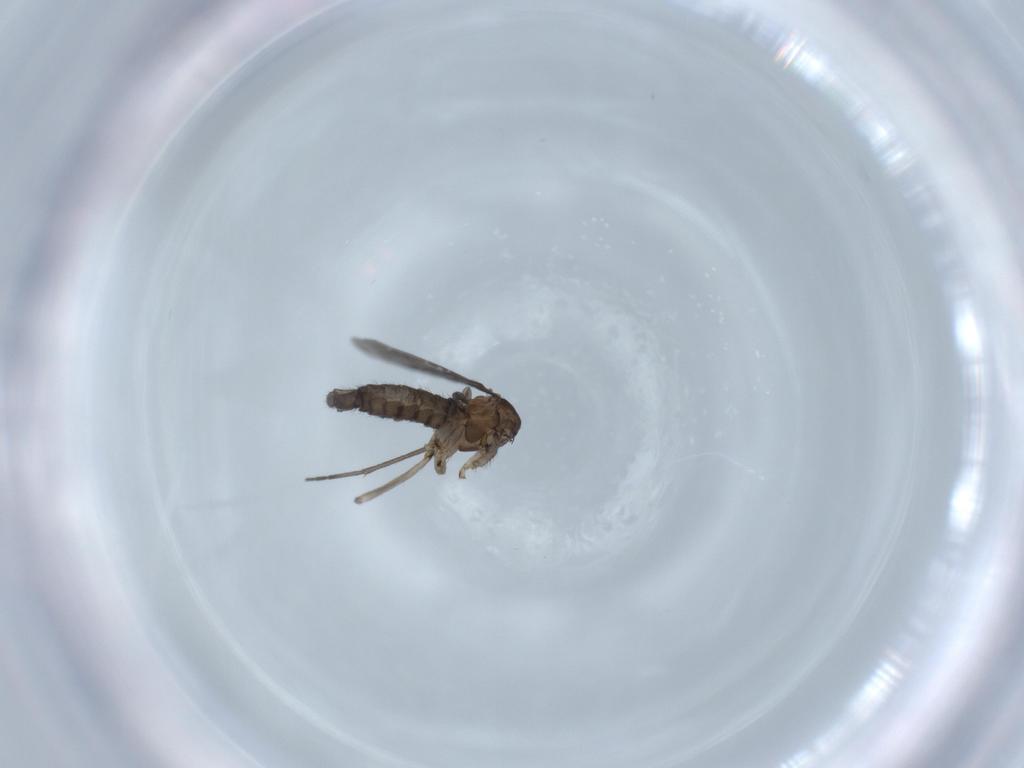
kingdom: Animalia
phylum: Arthropoda
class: Insecta
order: Diptera
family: Sciaridae
